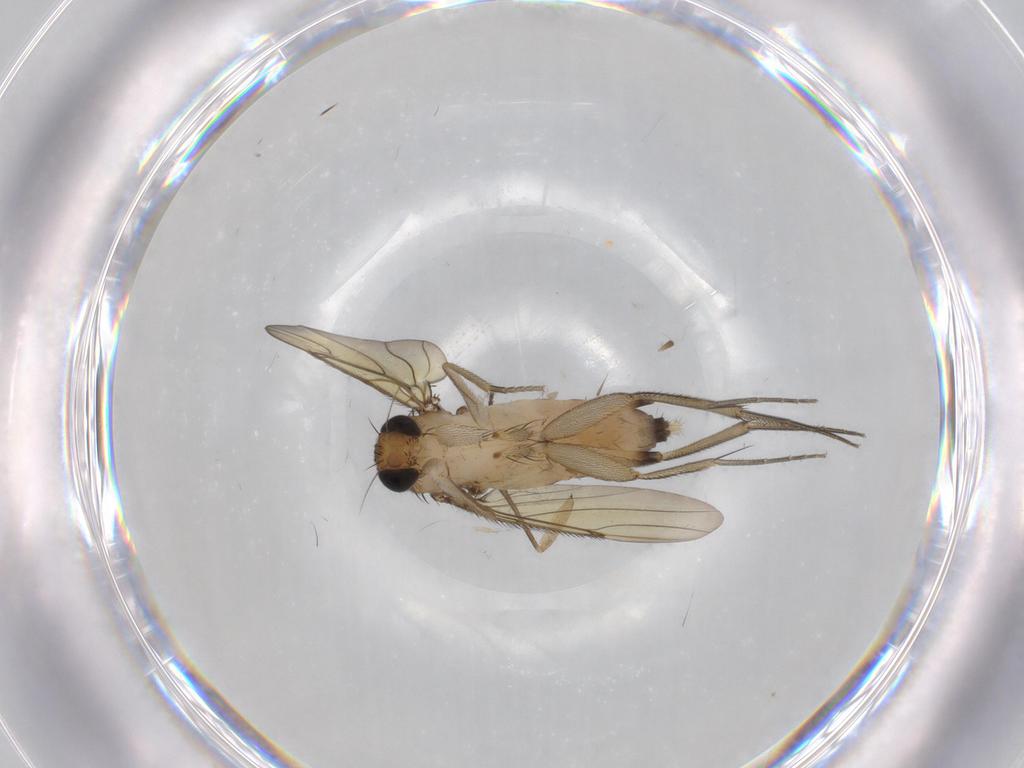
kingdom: Animalia
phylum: Arthropoda
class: Insecta
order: Diptera
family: Phoridae
